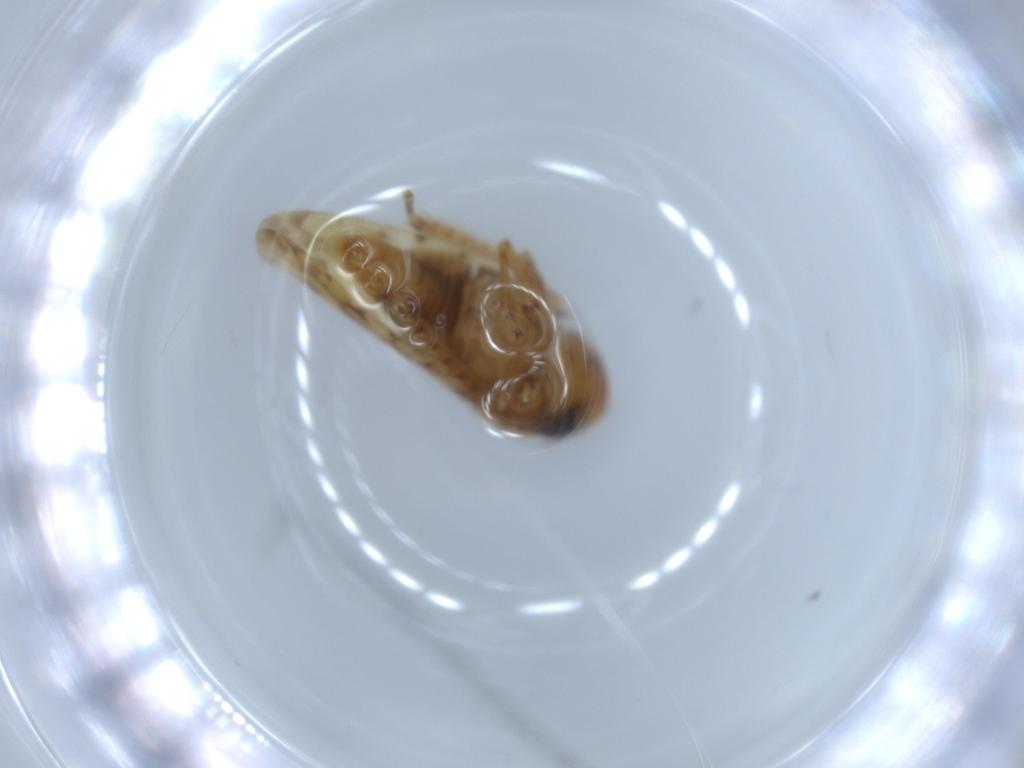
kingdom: Animalia
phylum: Arthropoda
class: Insecta
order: Hemiptera
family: Cicadellidae
